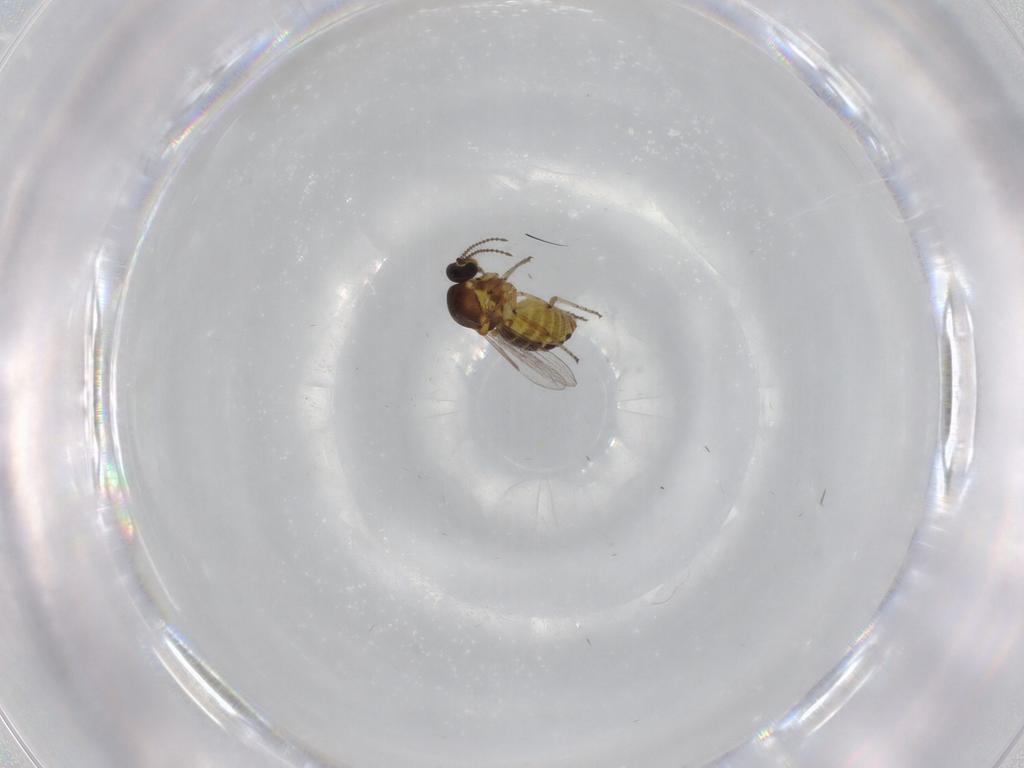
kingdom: Animalia
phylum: Arthropoda
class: Insecta
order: Diptera
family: Ceratopogonidae
